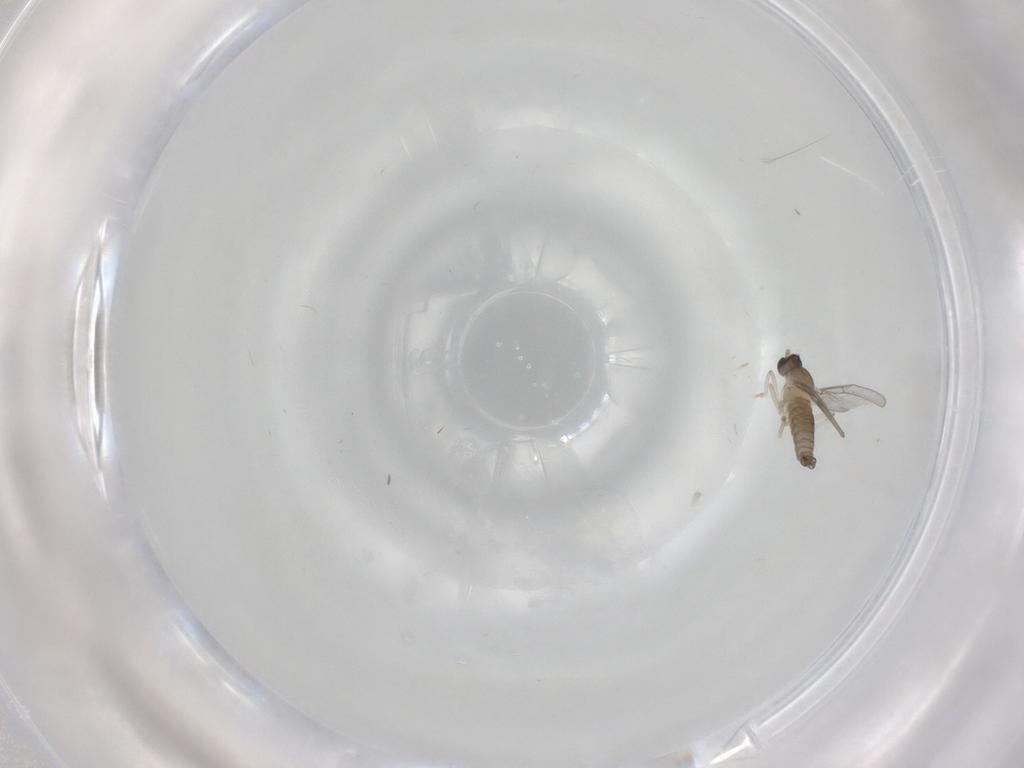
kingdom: Animalia
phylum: Arthropoda
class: Insecta
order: Diptera
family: Cecidomyiidae
